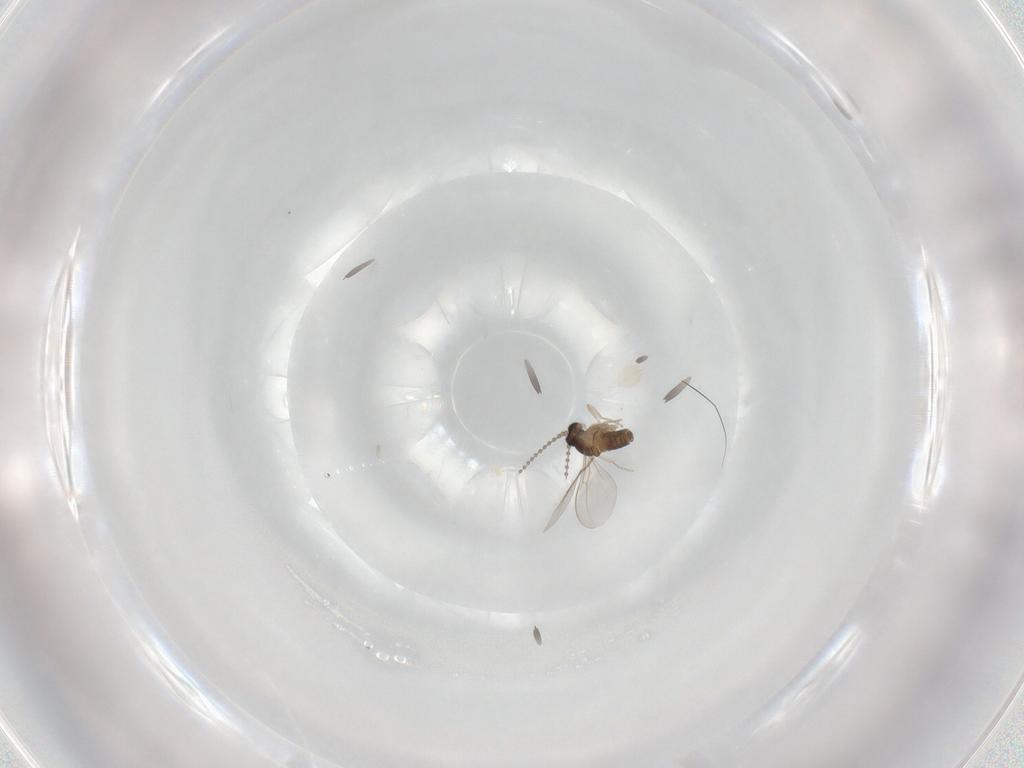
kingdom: Animalia
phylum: Arthropoda
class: Insecta
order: Diptera
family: Cecidomyiidae
